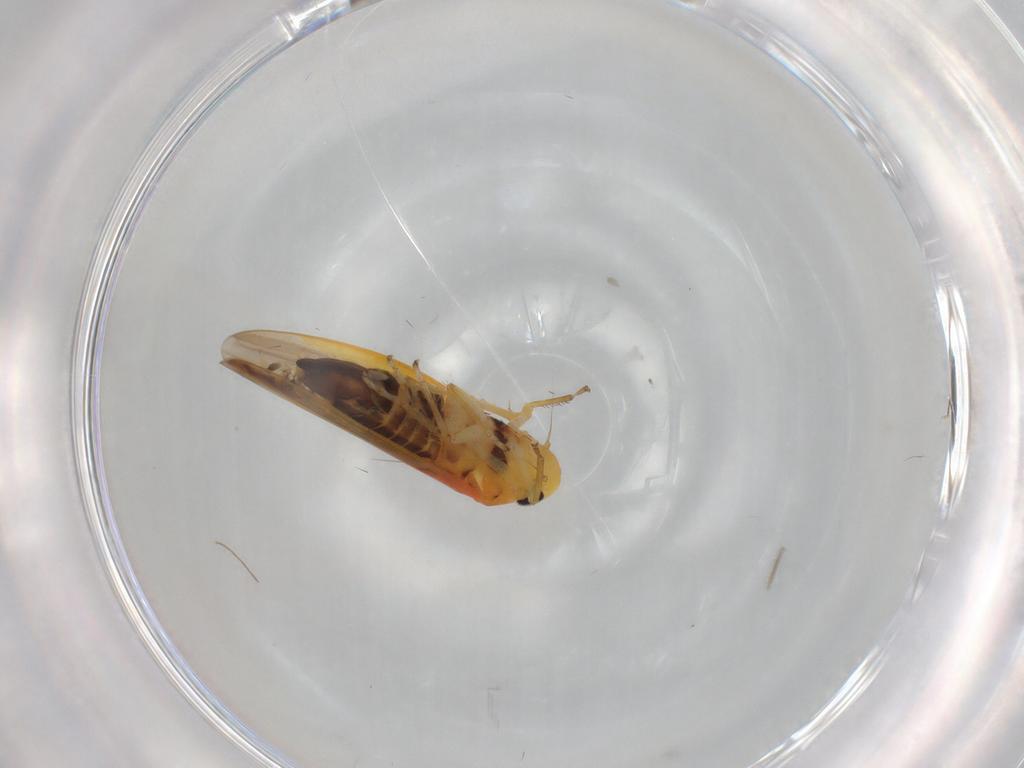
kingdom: Animalia
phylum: Arthropoda
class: Insecta
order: Hemiptera
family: Cicadellidae
